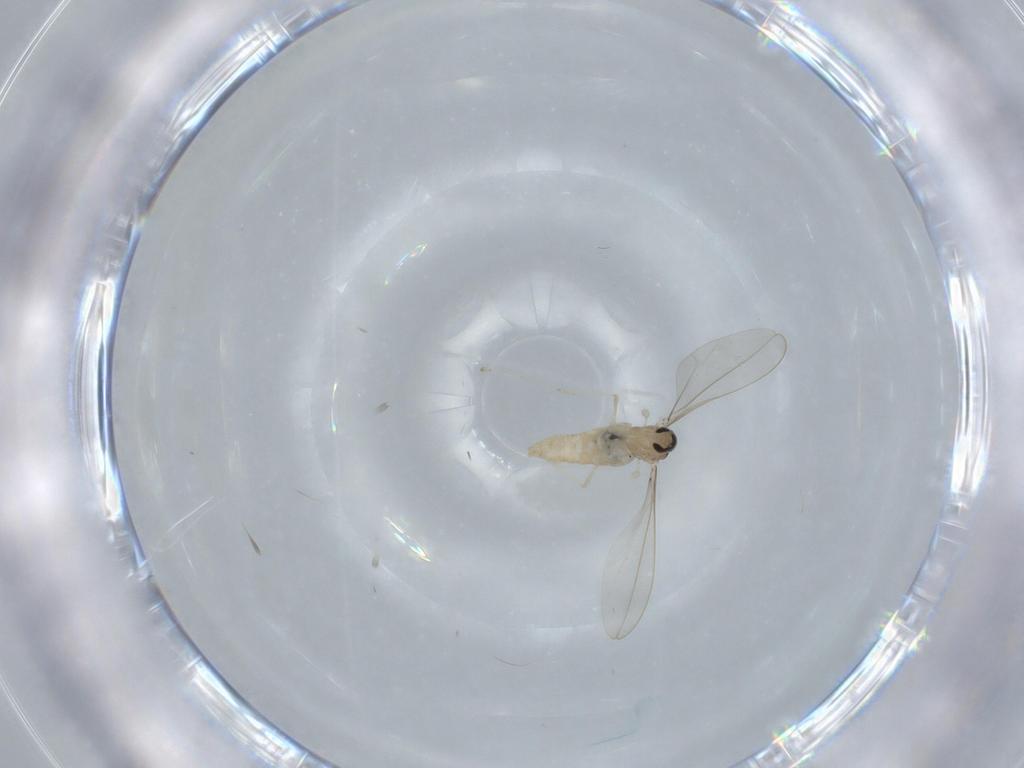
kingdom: Animalia
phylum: Arthropoda
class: Insecta
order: Diptera
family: Cecidomyiidae
